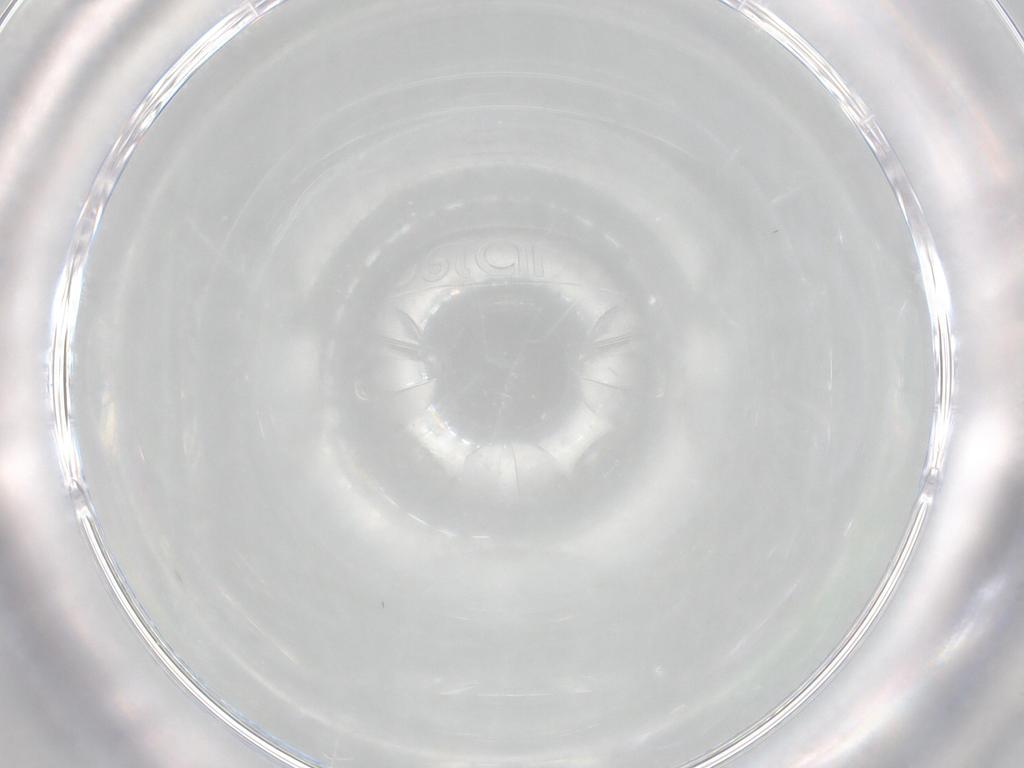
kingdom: Animalia
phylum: Arthropoda
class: Insecta
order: Diptera
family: Chironomidae
